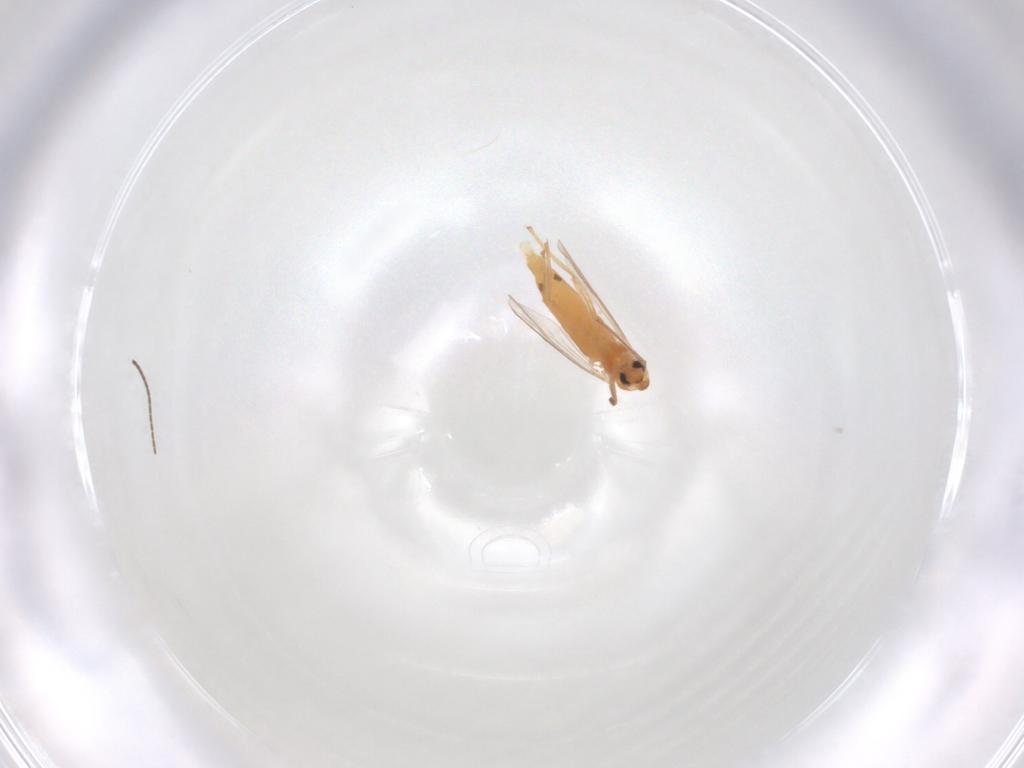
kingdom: Animalia
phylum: Arthropoda
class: Insecta
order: Diptera
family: Chironomidae
